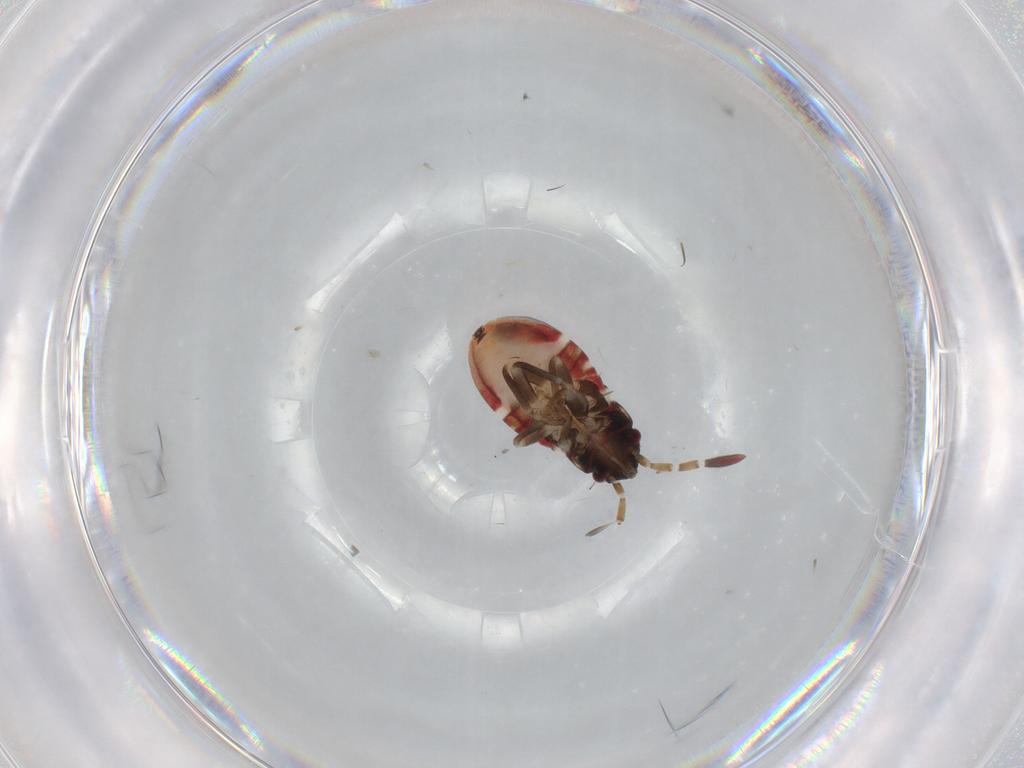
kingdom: Animalia
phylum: Arthropoda
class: Insecta
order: Hemiptera
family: Rhyparochromidae
